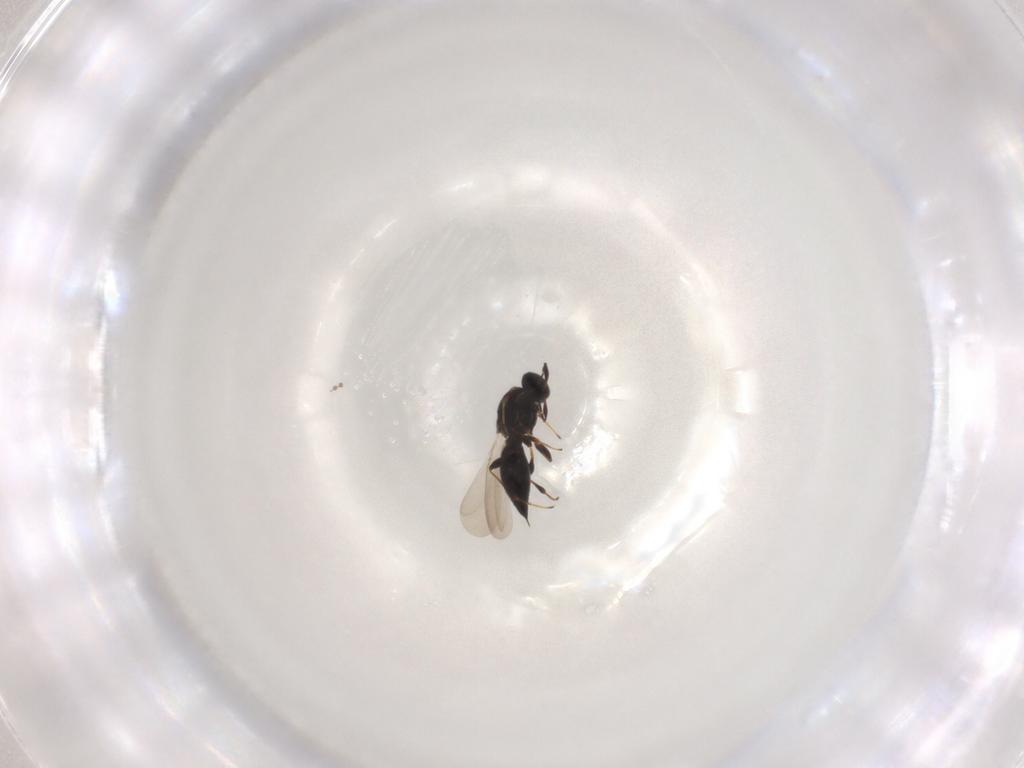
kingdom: Animalia
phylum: Arthropoda
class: Insecta
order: Hymenoptera
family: Platygastridae
